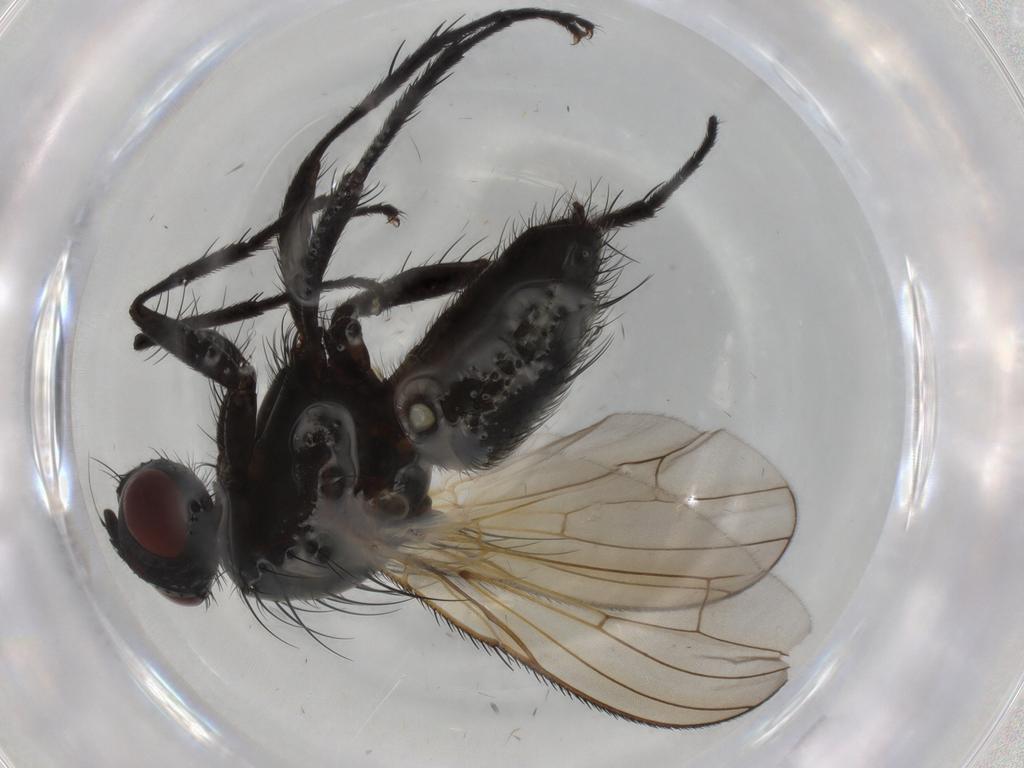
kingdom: Animalia
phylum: Arthropoda
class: Insecta
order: Diptera
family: Anthomyiidae
